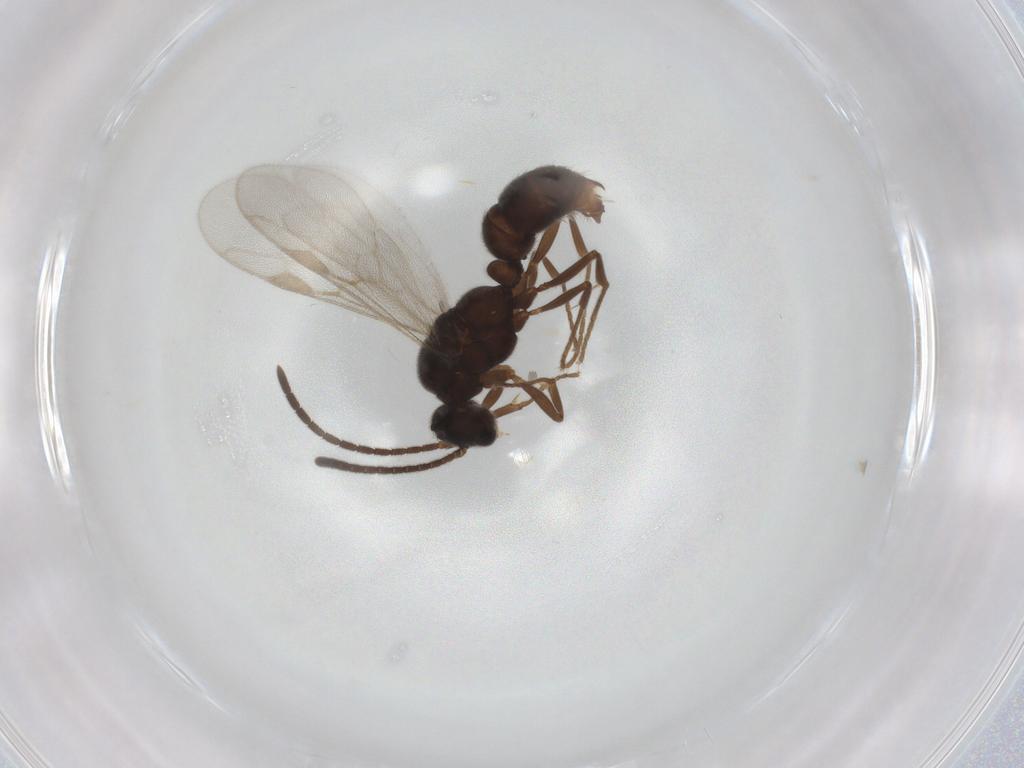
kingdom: Animalia
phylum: Arthropoda
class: Insecta
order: Hymenoptera
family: Formicidae
